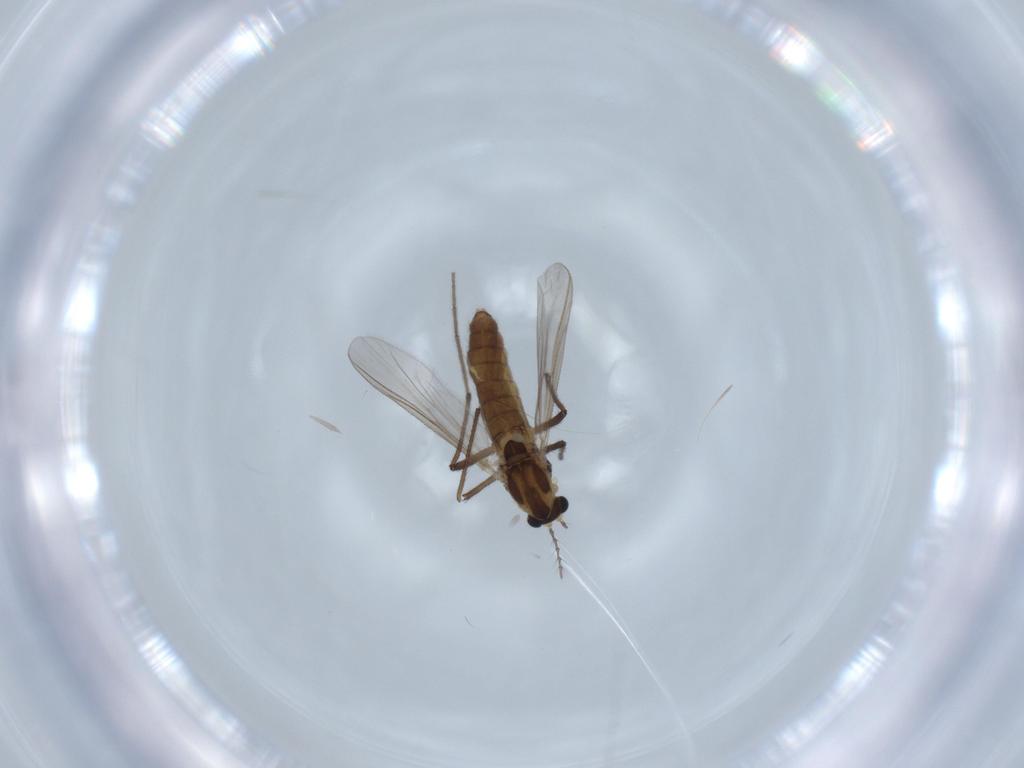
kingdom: Animalia
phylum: Arthropoda
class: Insecta
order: Diptera
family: Chironomidae
